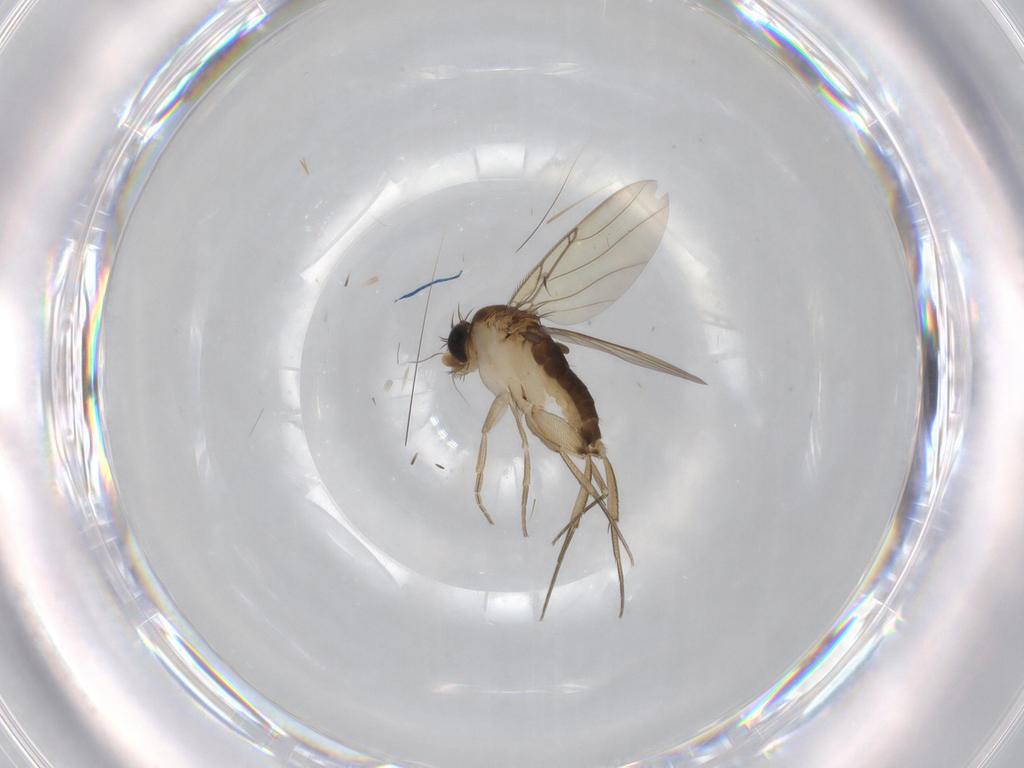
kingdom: Animalia
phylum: Arthropoda
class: Insecta
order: Diptera
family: Phoridae
